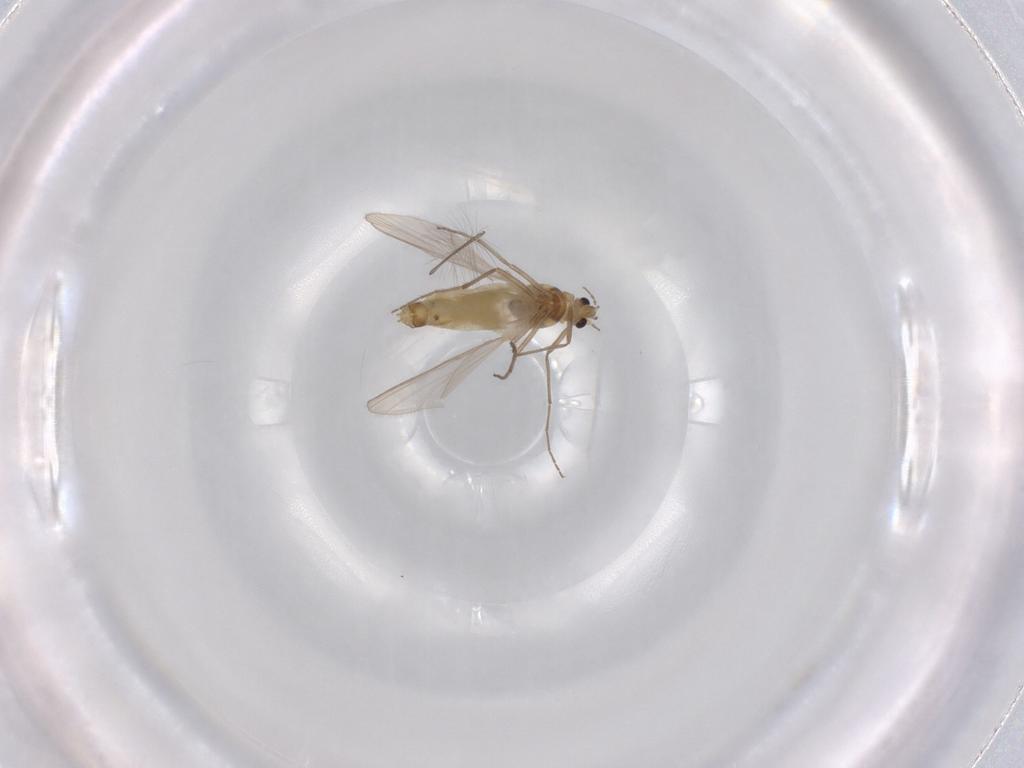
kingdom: Animalia
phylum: Arthropoda
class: Insecta
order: Diptera
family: Chironomidae
